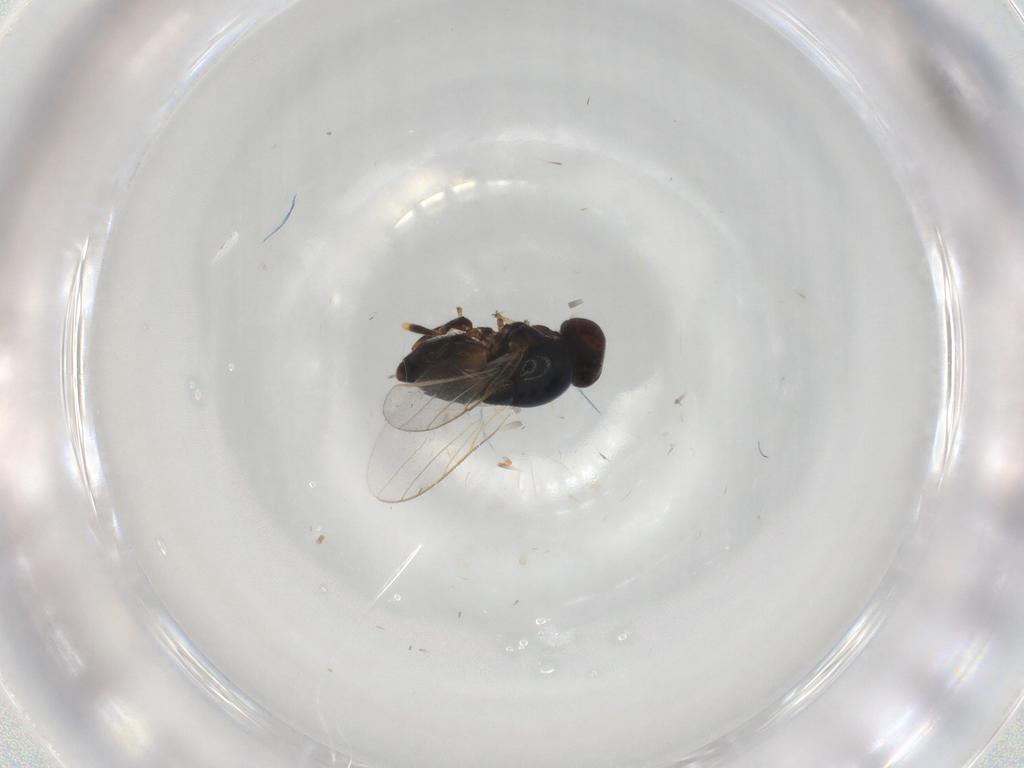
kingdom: Animalia
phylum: Arthropoda
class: Insecta
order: Diptera
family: Chloropidae
